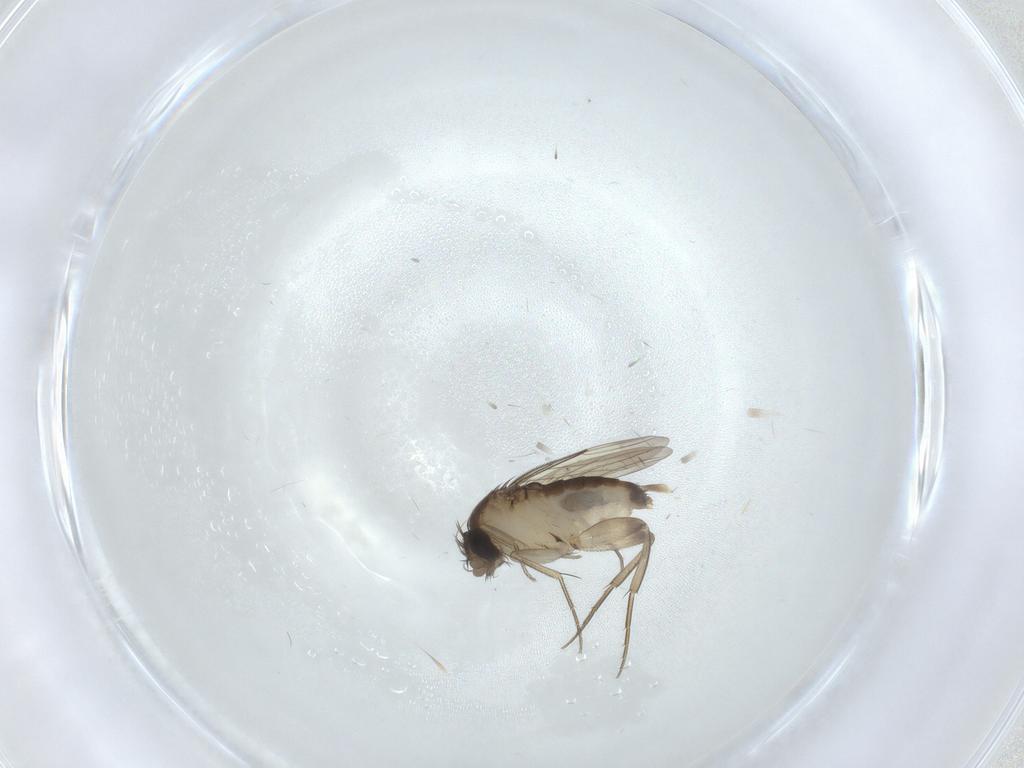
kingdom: Animalia
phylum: Arthropoda
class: Insecta
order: Diptera
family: Phoridae
